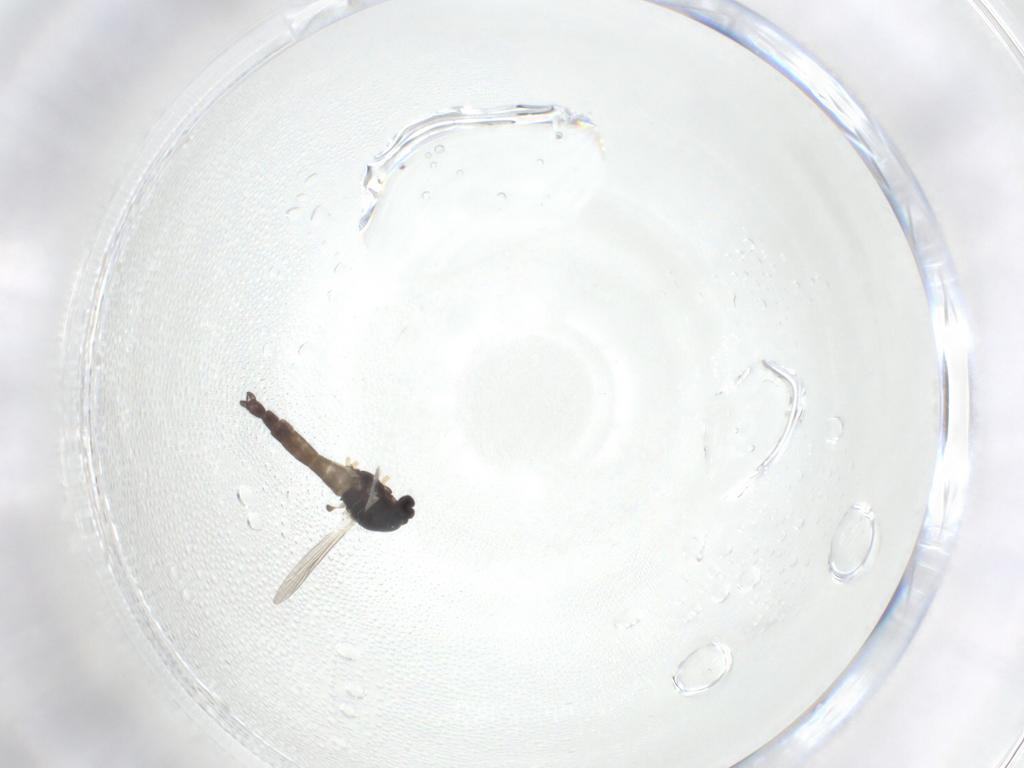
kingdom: Animalia
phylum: Arthropoda
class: Insecta
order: Diptera
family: Chironomidae
